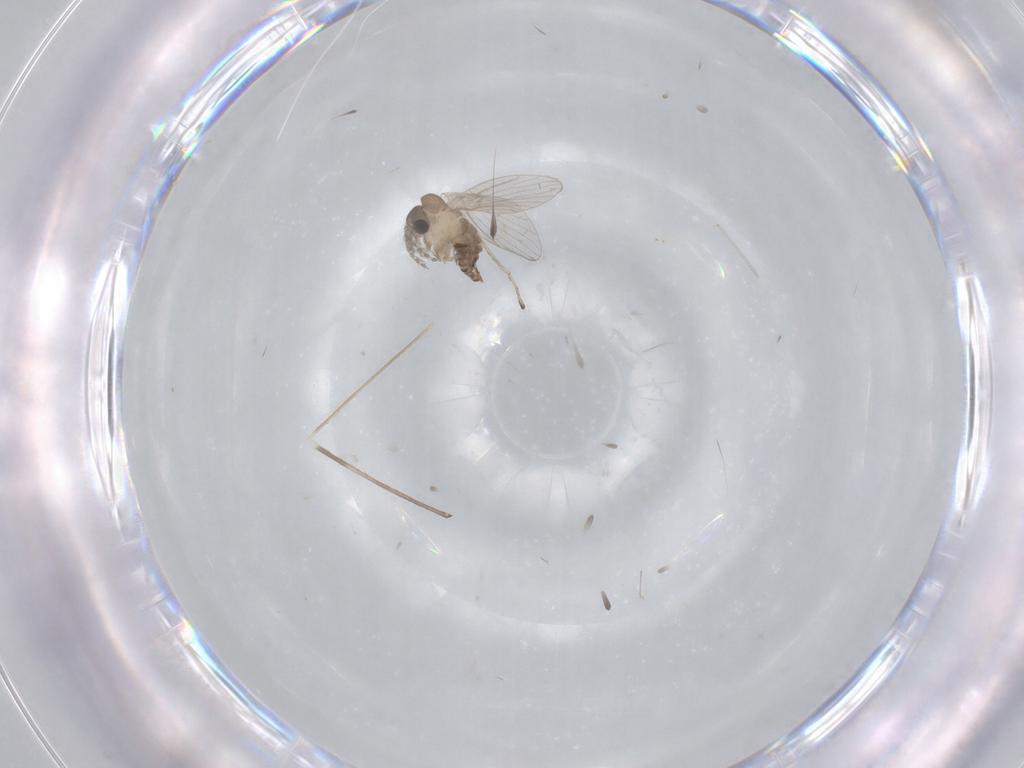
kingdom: Animalia
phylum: Arthropoda
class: Insecta
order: Diptera
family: Cecidomyiidae
